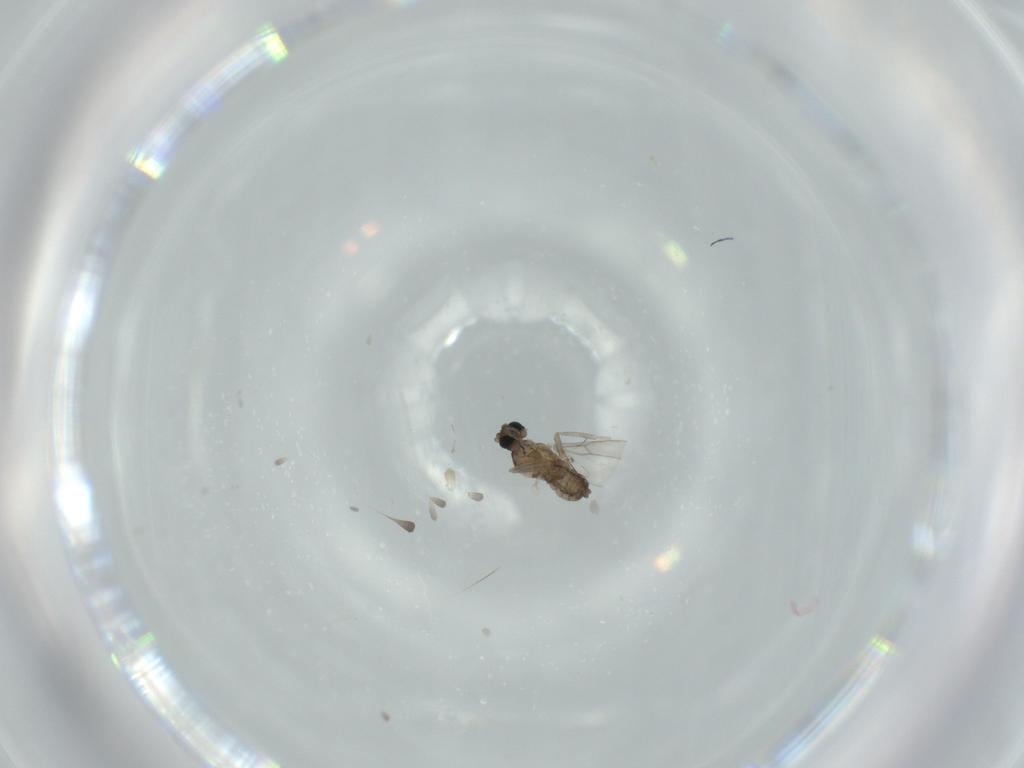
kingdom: Animalia
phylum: Arthropoda
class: Insecta
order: Diptera
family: Cecidomyiidae
